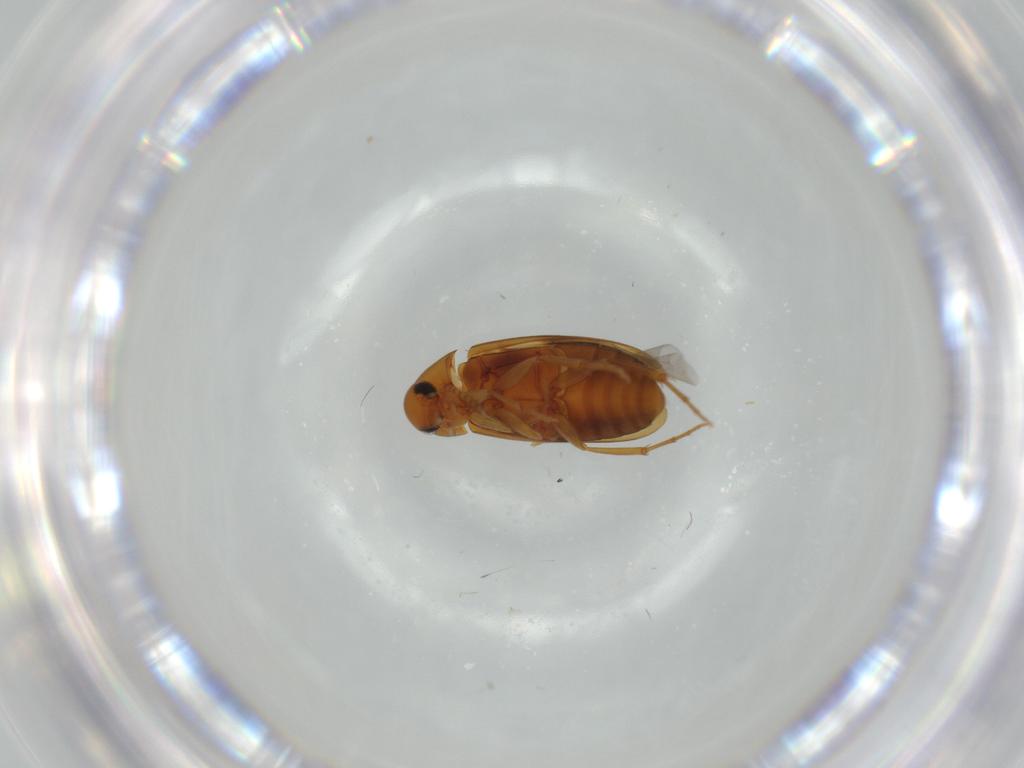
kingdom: Animalia
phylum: Arthropoda
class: Insecta
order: Coleoptera
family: Scraptiidae
